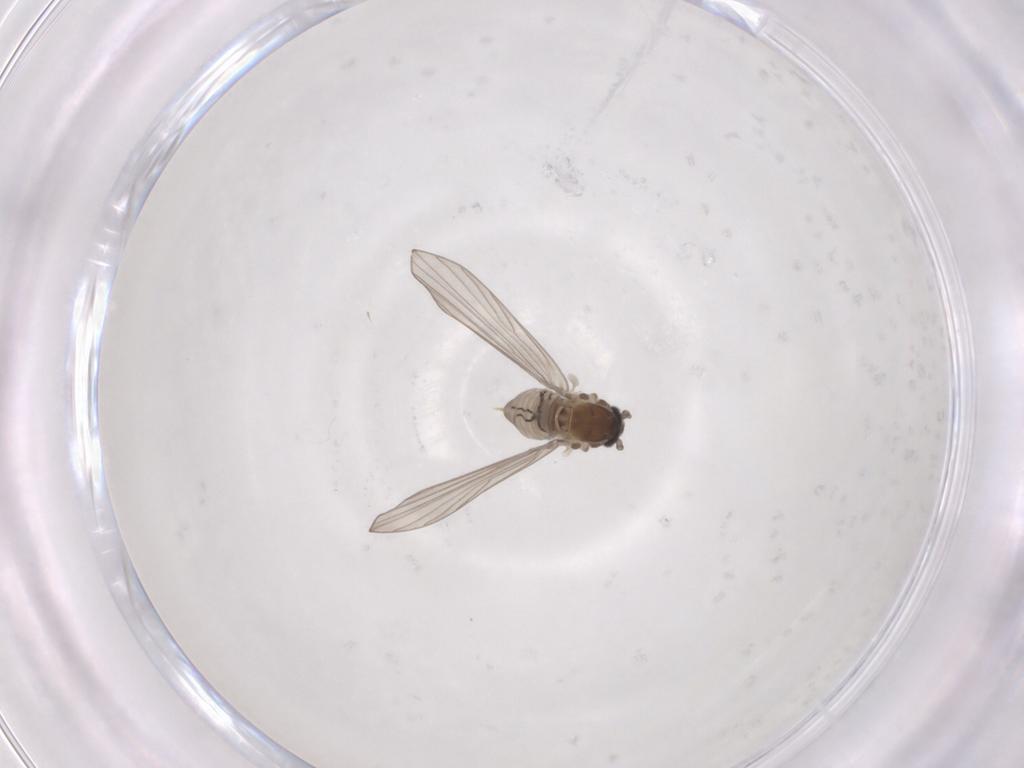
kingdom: Animalia
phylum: Arthropoda
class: Insecta
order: Diptera
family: Psychodidae
